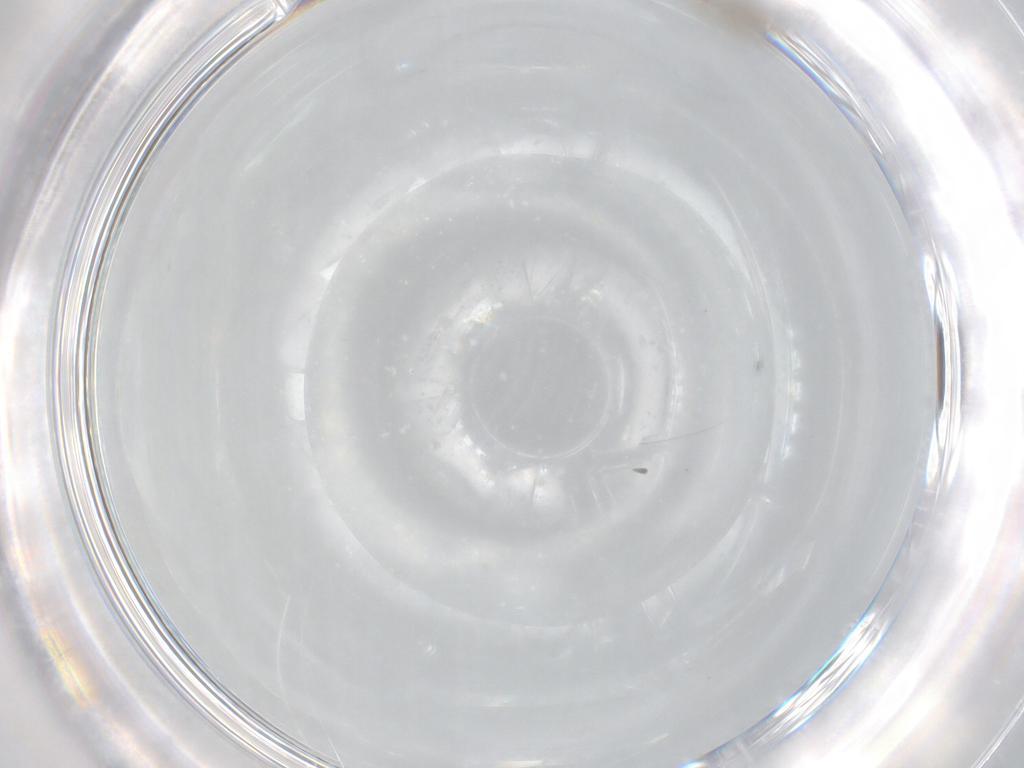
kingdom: Animalia
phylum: Arthropoda
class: Insecta
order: Diptera
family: Cecidomyiidae
